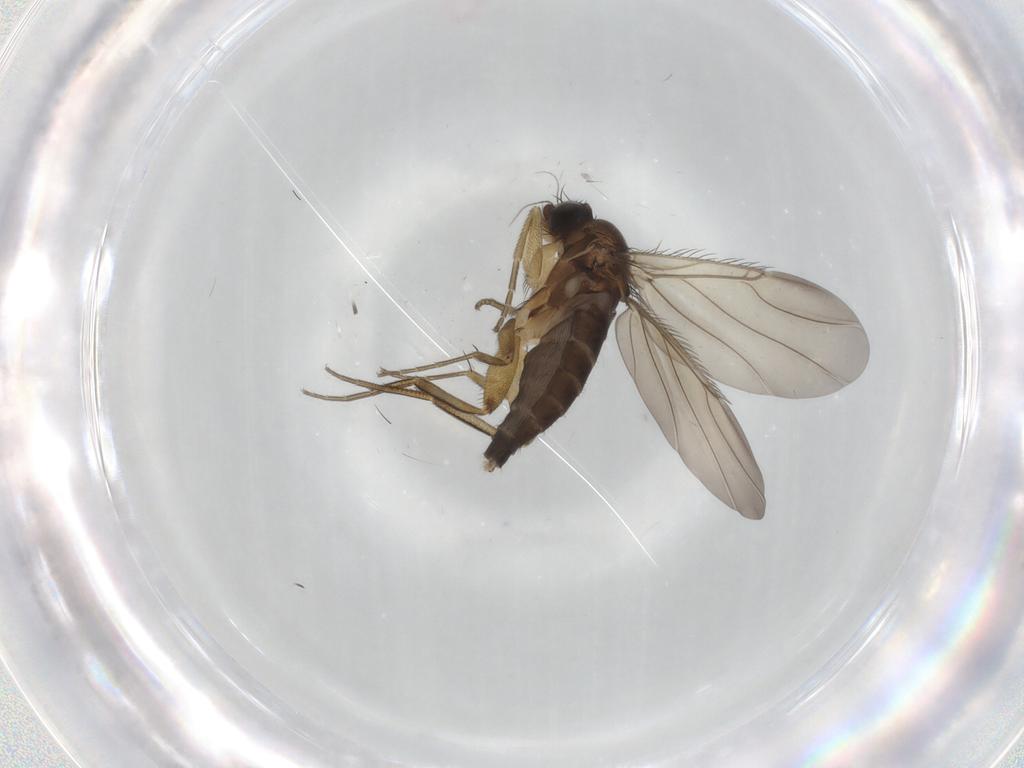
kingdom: Animalia
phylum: Arthropoda
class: Insecta
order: Diptera
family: Phoridae
